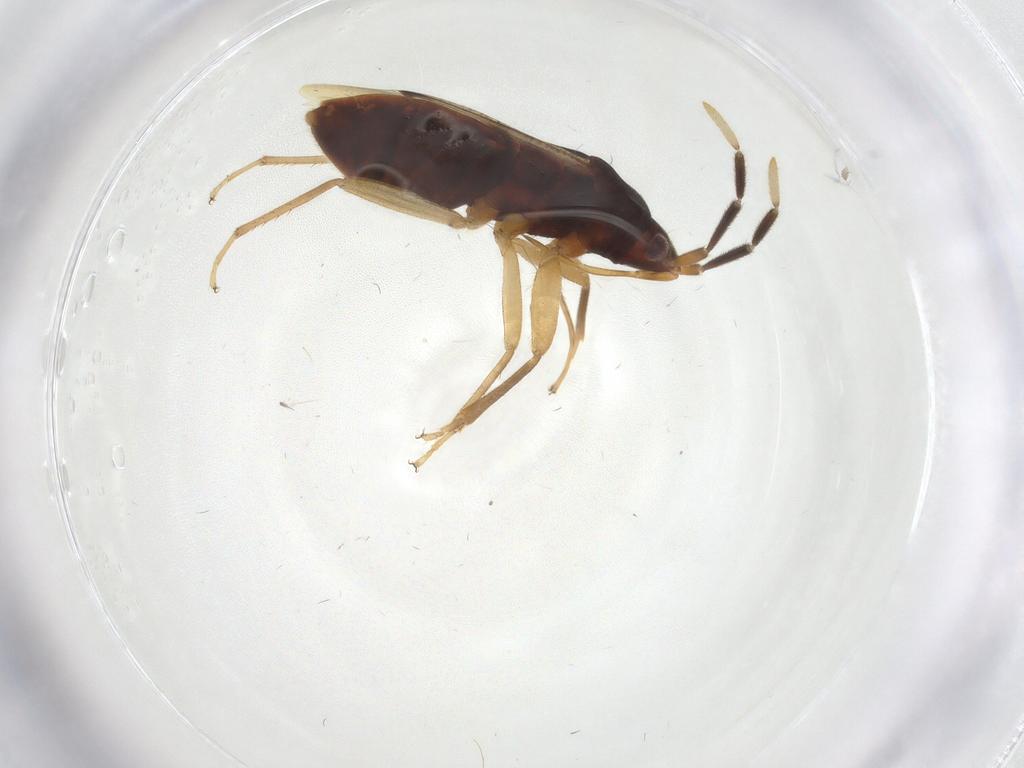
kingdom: Animalia
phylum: Arthropoda
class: Insecta
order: Hemiptera
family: Rhyparochromidae
